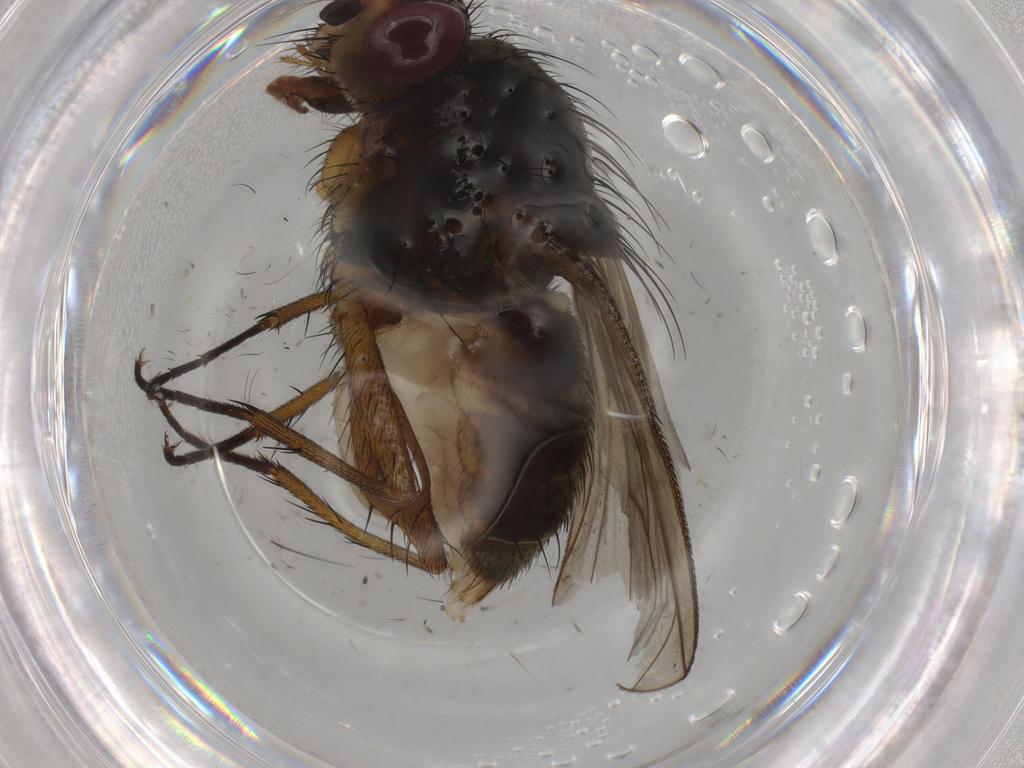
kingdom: Animalia
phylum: Arthropoda
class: Insecta
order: Diptera
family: Anthomyiidae
